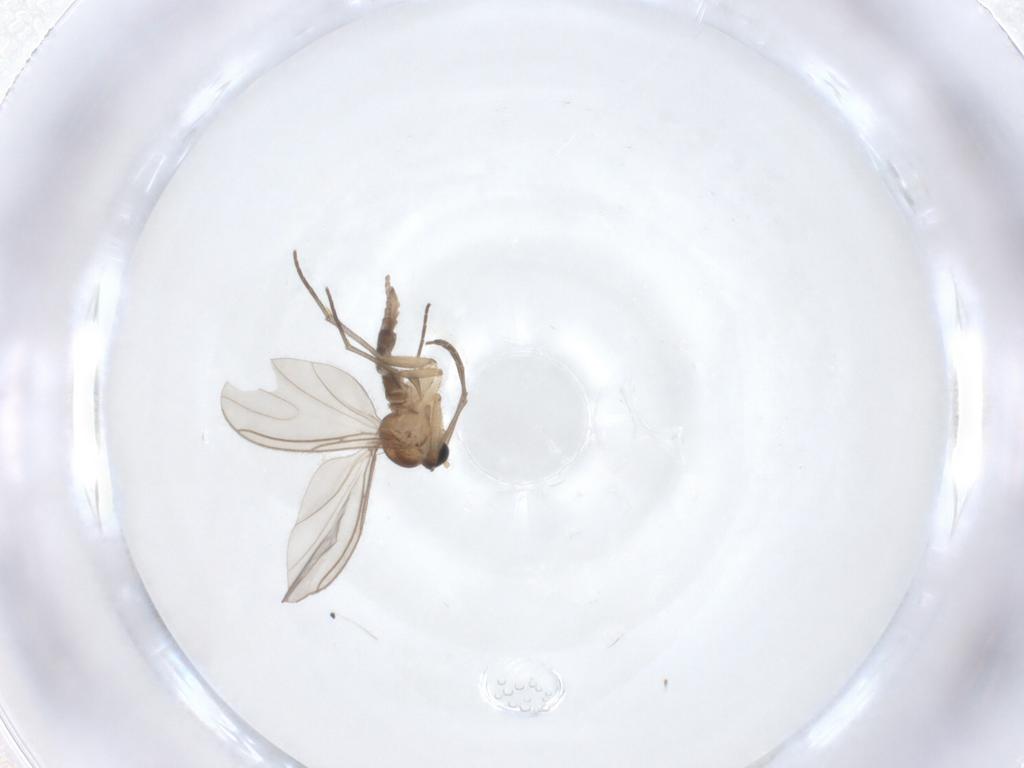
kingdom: Animalia
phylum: Arthropoda
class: Insecta
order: Diptera
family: Sciaridae
